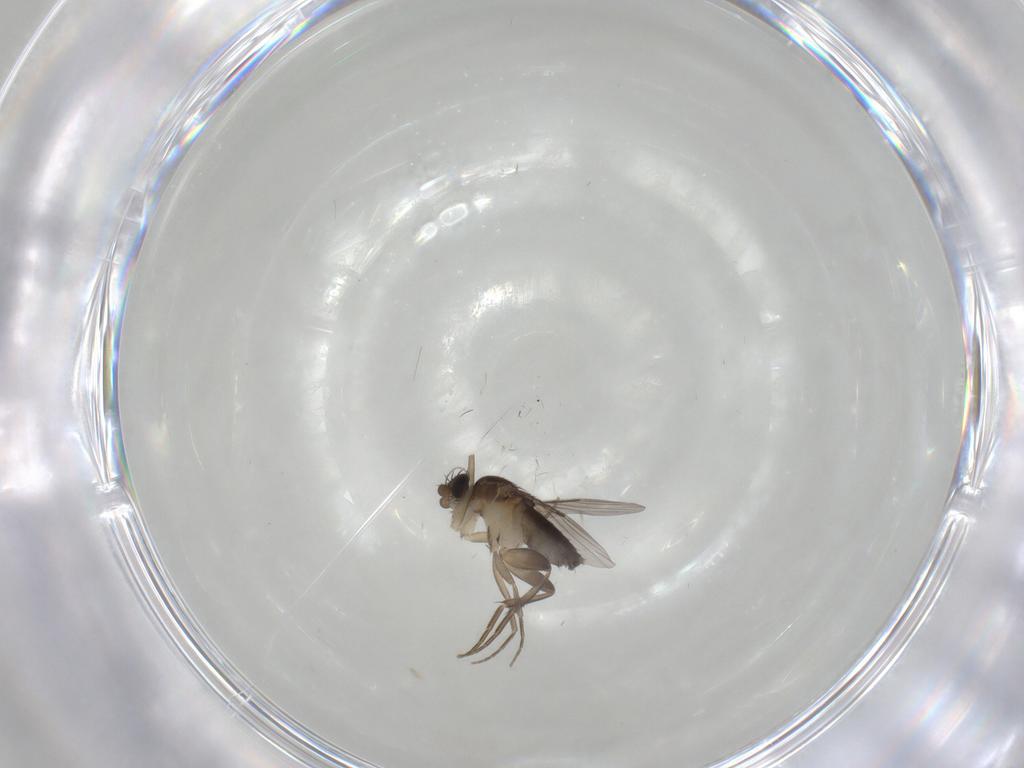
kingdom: Animalia
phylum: Arthropoda
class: Insecta
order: Diptera
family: Phoridae
